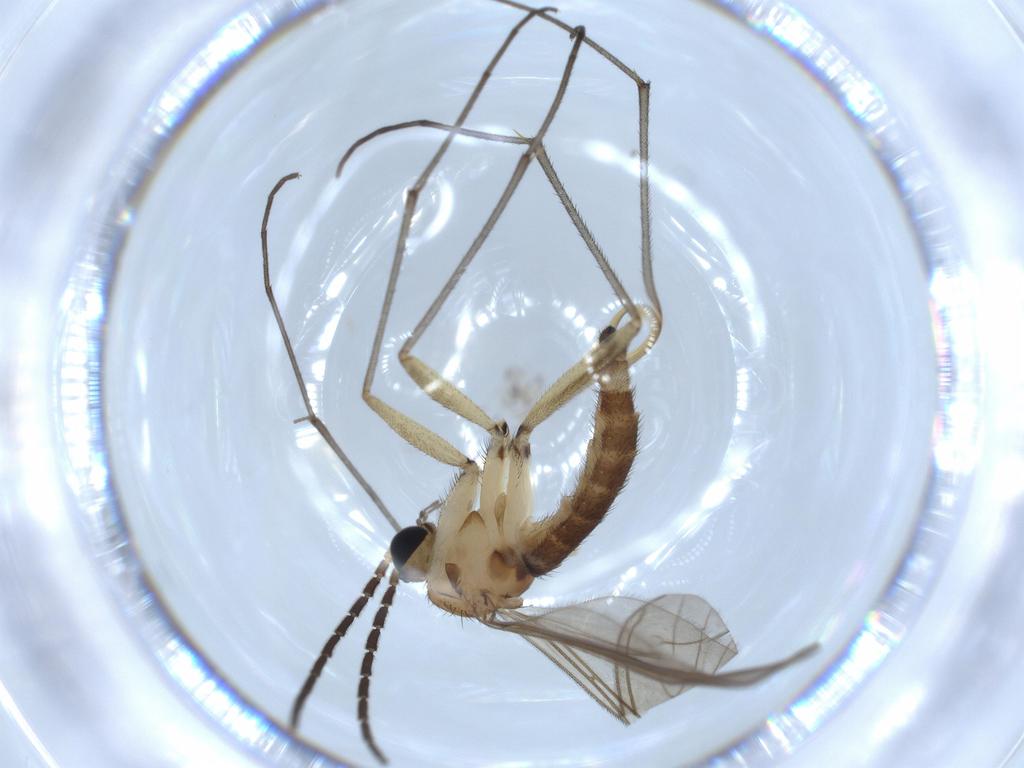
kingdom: Animalia
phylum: Arthropoda
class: Insecta
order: Diptera
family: Sciaridae
